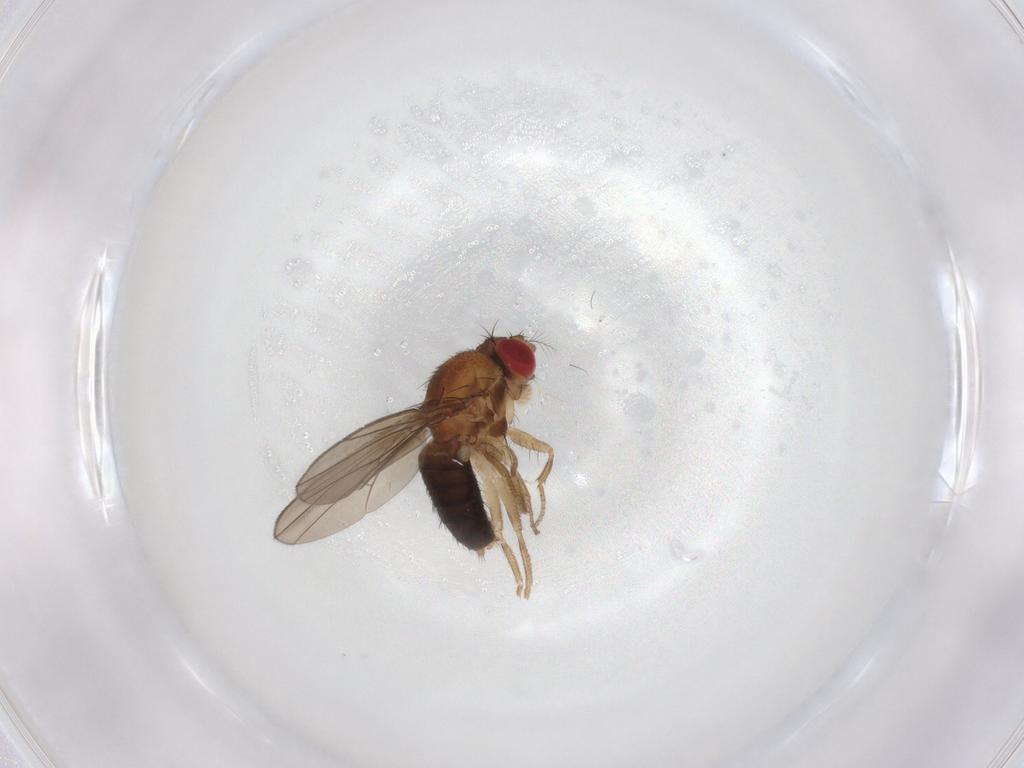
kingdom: Animalia
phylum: Arthropoda
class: Insecta
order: Diptera
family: Drosophilidae
